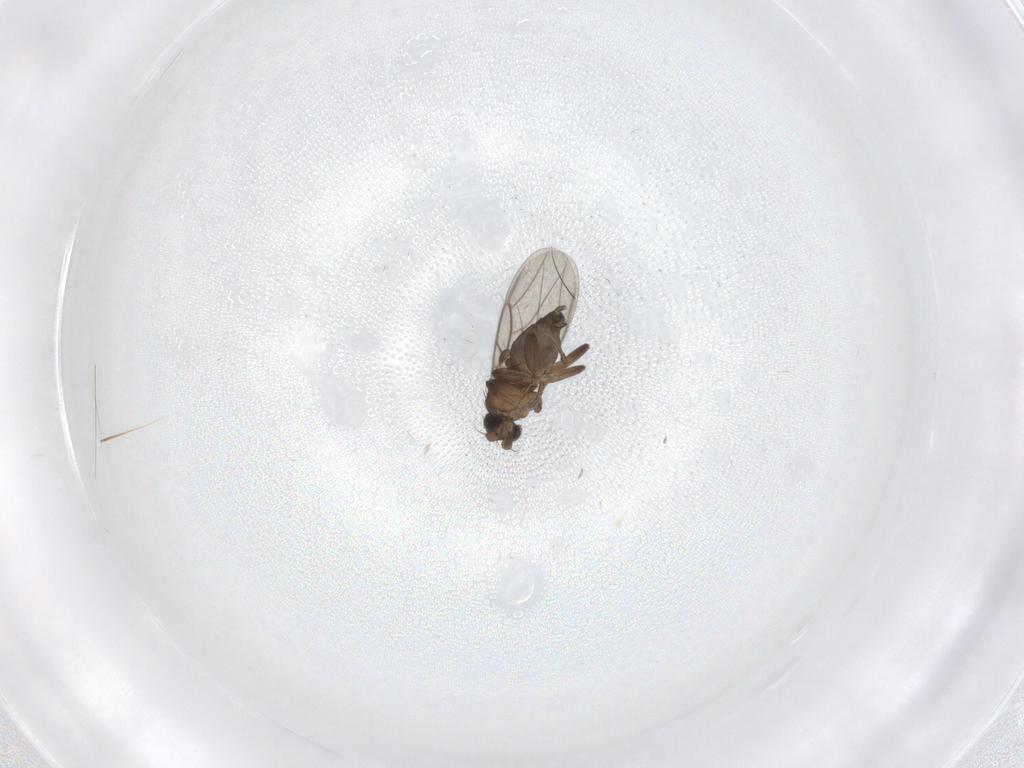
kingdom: Animalia
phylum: Arthropoda
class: Insecta
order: Diptera
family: Phoridae
